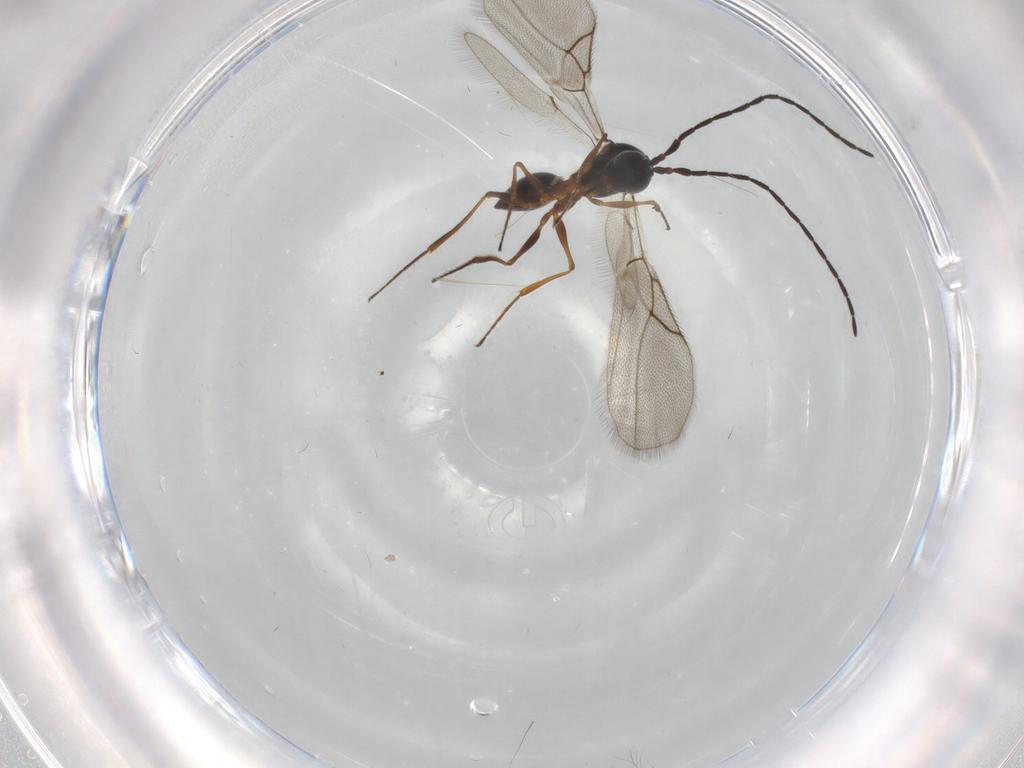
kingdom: Animalia
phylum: Arthropoda
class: Insecta
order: Hymenoptera
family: Figitidae
